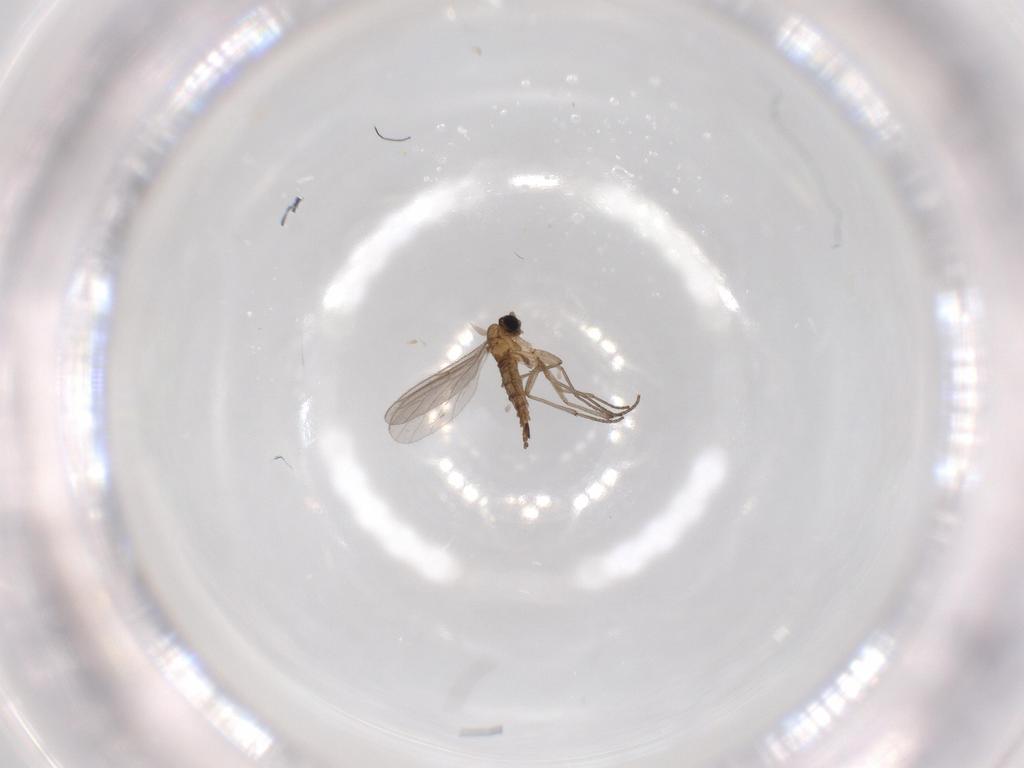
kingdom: Animalia
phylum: Arthropoda
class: Insecta
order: Diptera
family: Sciaridae
